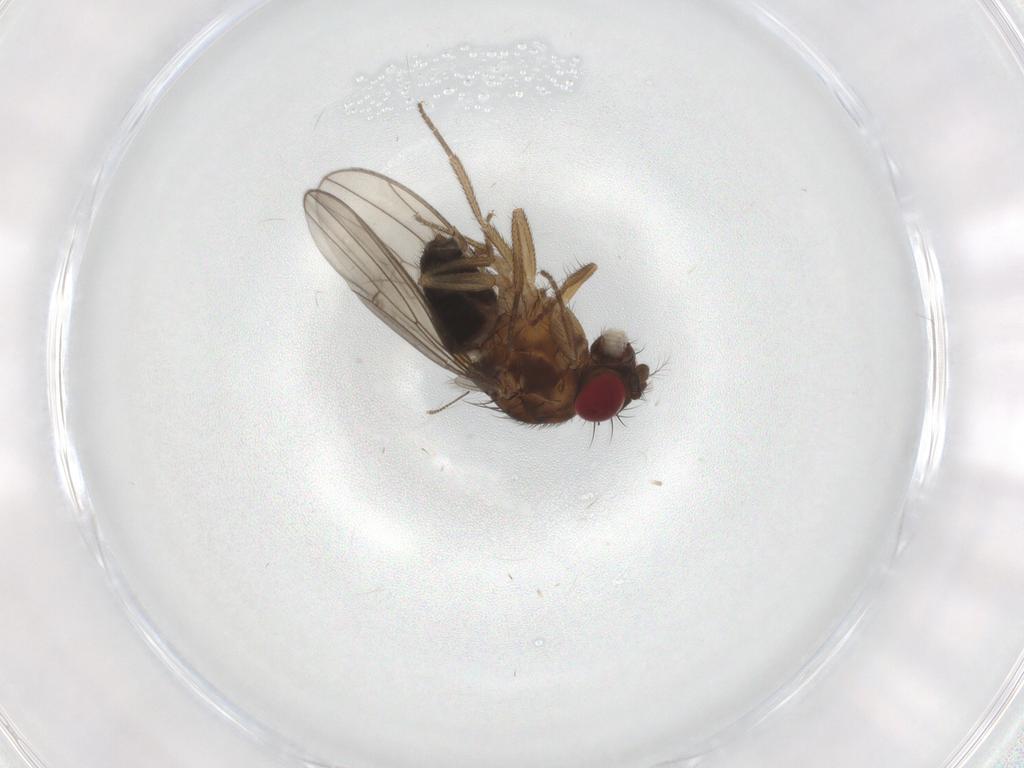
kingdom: Animalia
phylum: Arthropoda
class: Insecta
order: Diptera
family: Drosophilidae
